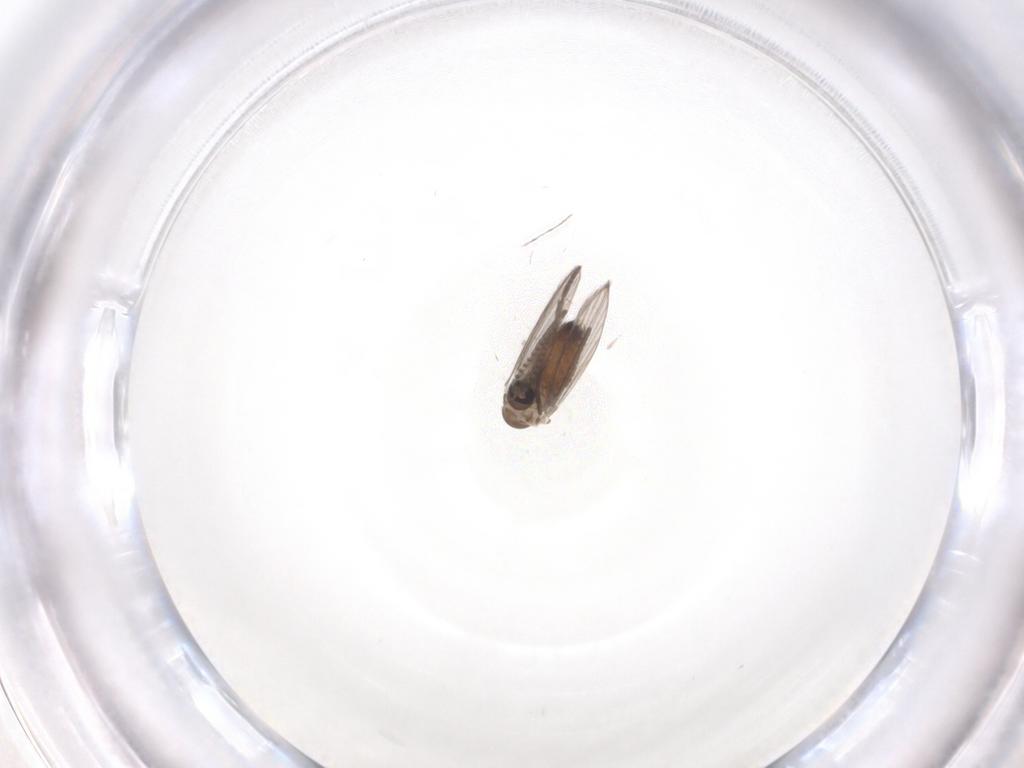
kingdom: Animalia
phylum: Arthropoda
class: Insecta
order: Diptera
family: Psychodidae
